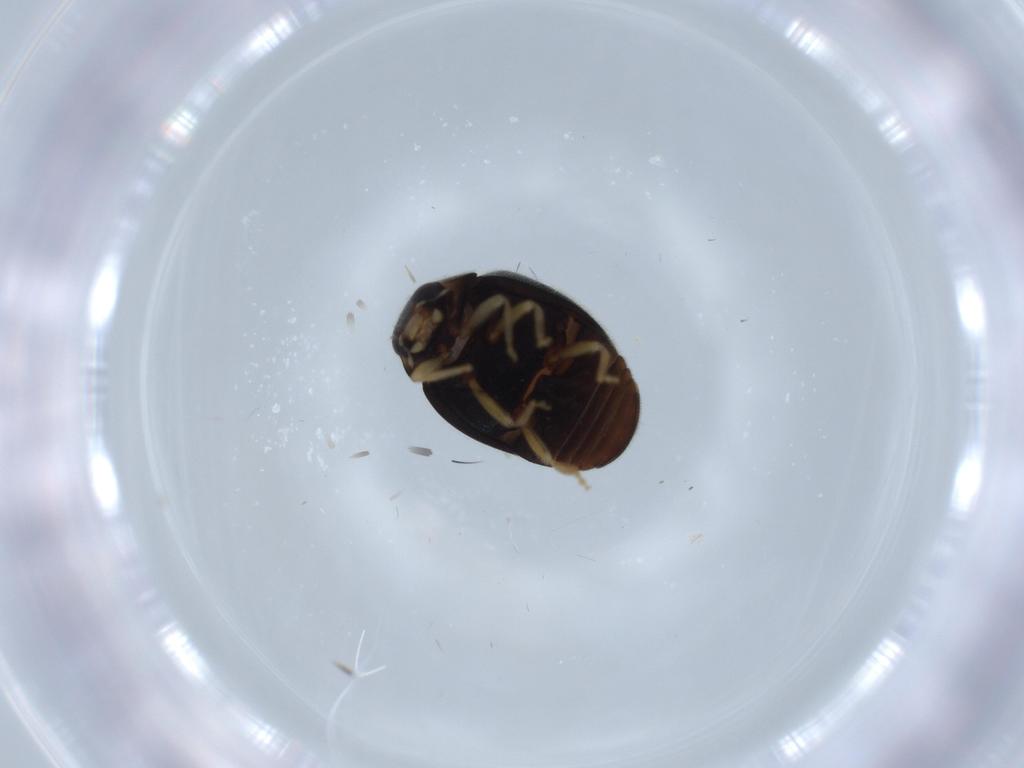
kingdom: Animalia
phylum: Arthropoda
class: Insecta
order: Coleoptera
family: Coccinellidae
